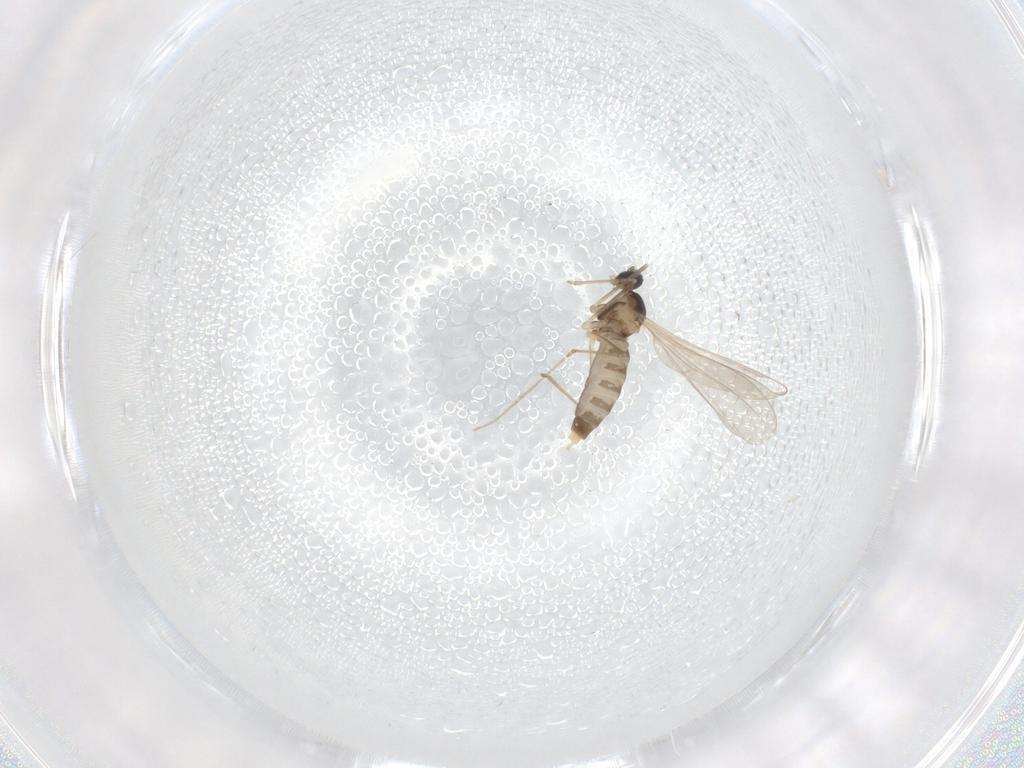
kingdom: Animalia
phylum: Arthropoda
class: Insecta
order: Diptera
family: Cecidomyiidae
